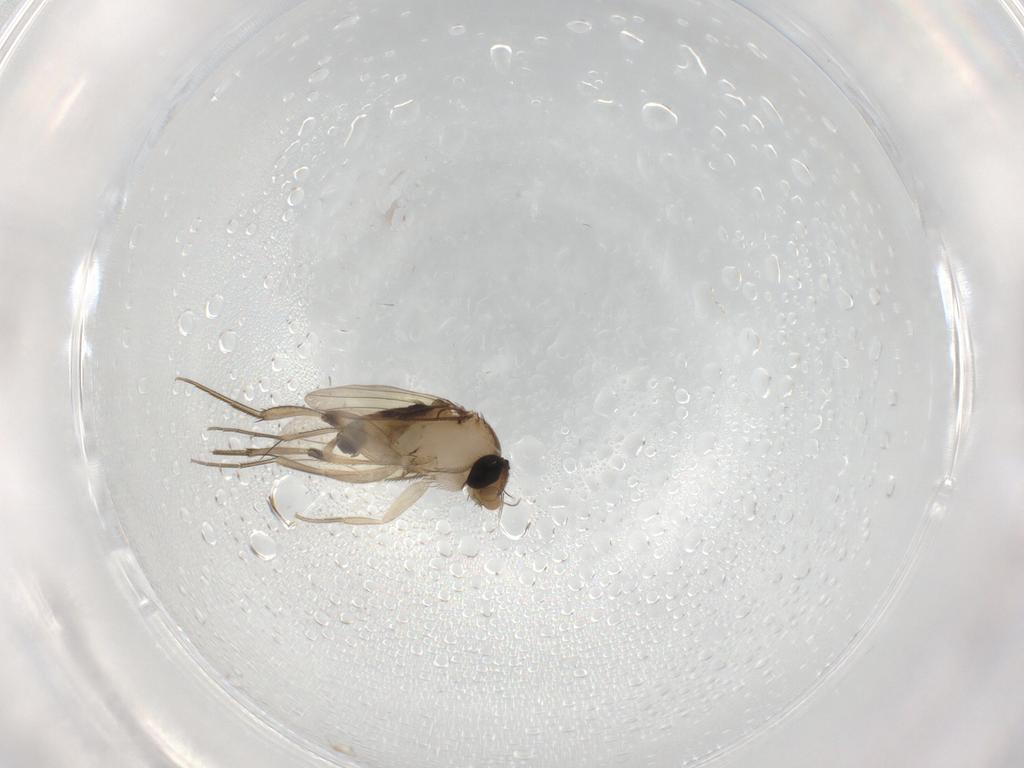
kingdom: Animalia
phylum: Arthropoda
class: Insecta
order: Diptera
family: Phoridae
